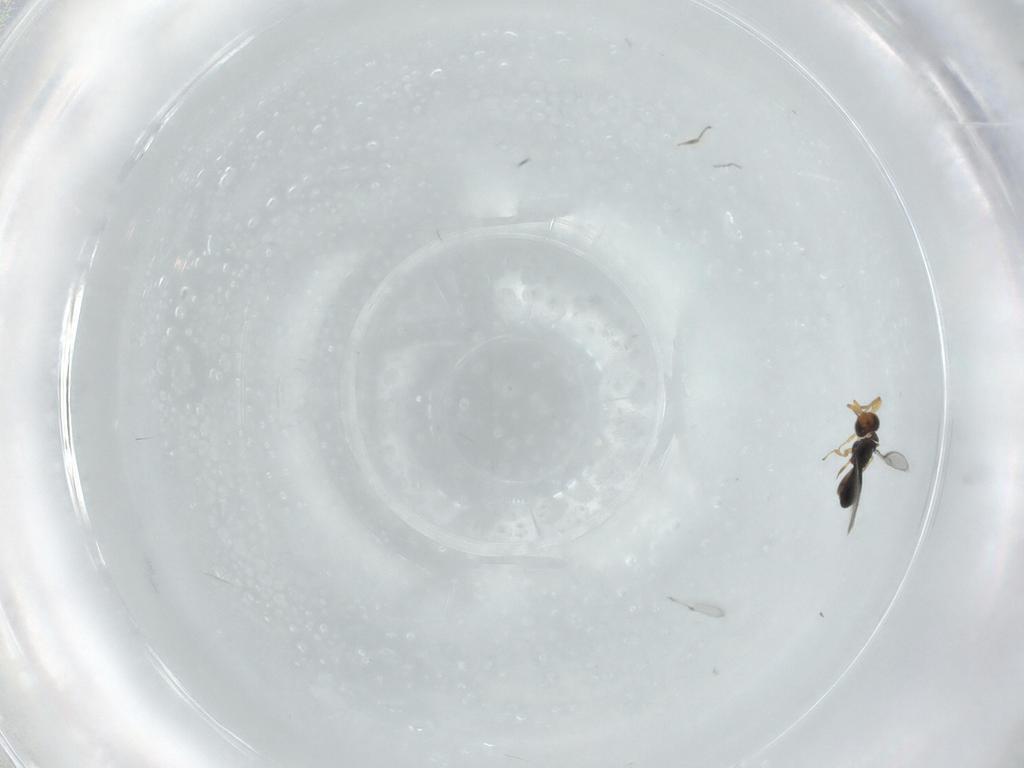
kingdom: Animalia
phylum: Arthropoda
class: Insecta
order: Hymenoptera
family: Scelionidae
